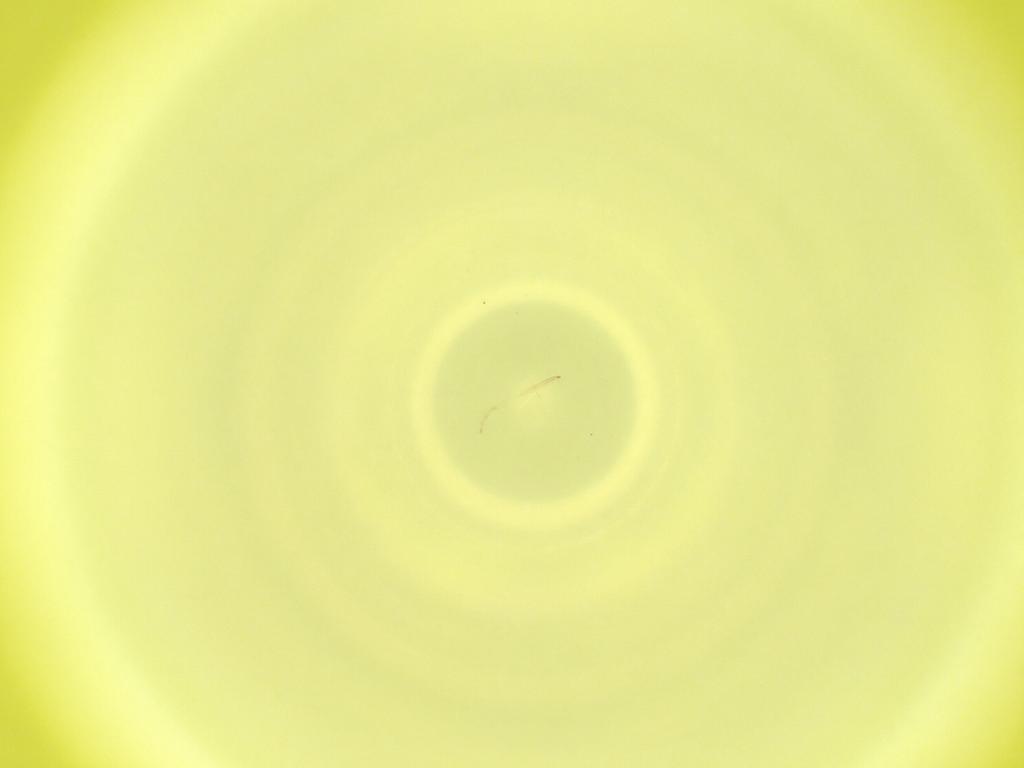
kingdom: Animalia
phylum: Arthropoda
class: Insecta
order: Diptera
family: Cecidomyiidae
